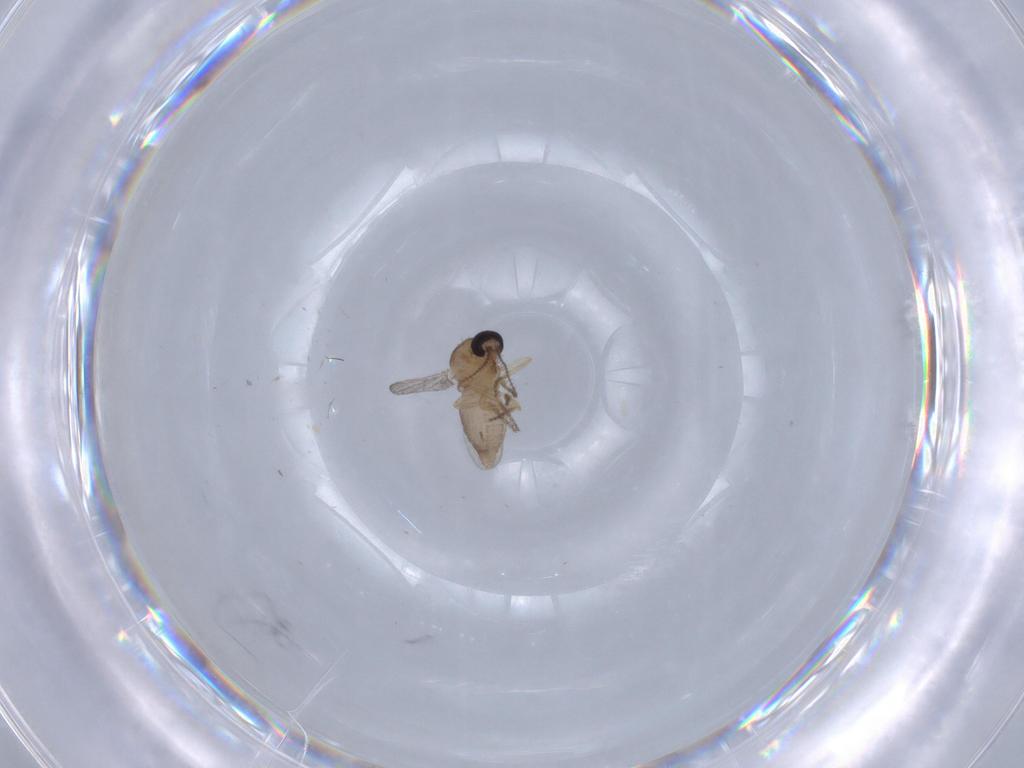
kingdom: Animalia
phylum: Arthropoda
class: Insecta
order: Diptera
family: Ceratopogonidae
